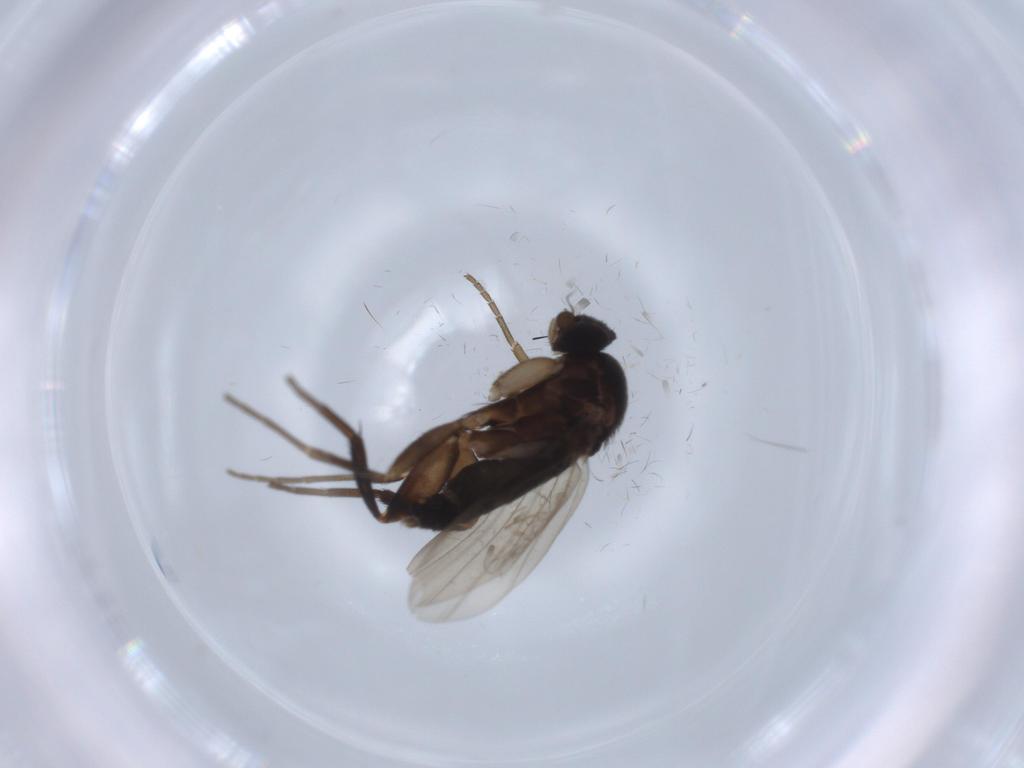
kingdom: Animalia
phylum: Arthropoda
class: Insecta
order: Diptera
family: Phoridae
